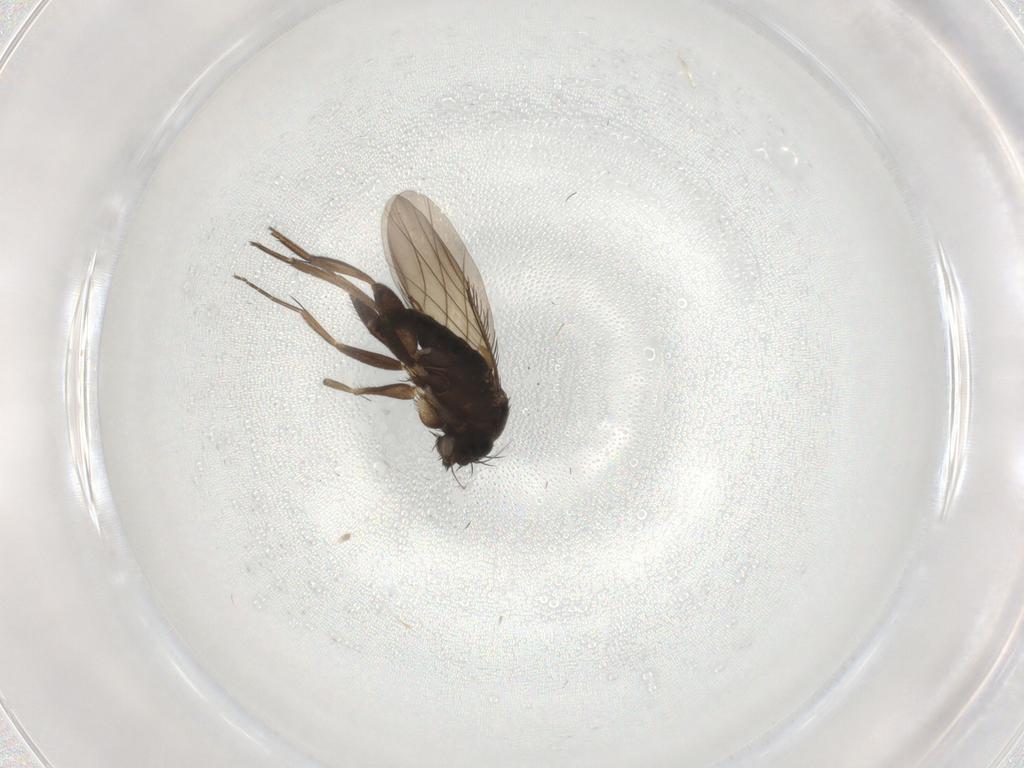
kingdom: Animalia
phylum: Arthropoda
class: Insecta
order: Diptera
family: Phoridae
